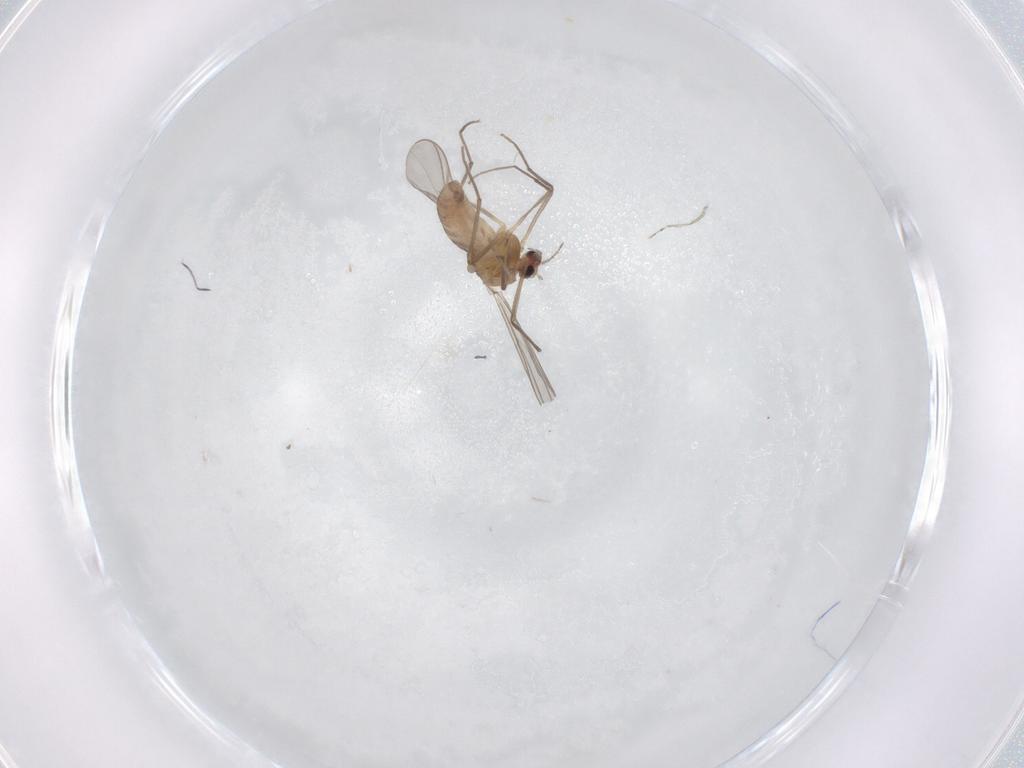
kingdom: Animalia
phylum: Arthropoda
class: Insecta
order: Diptera
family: Chironomidae
